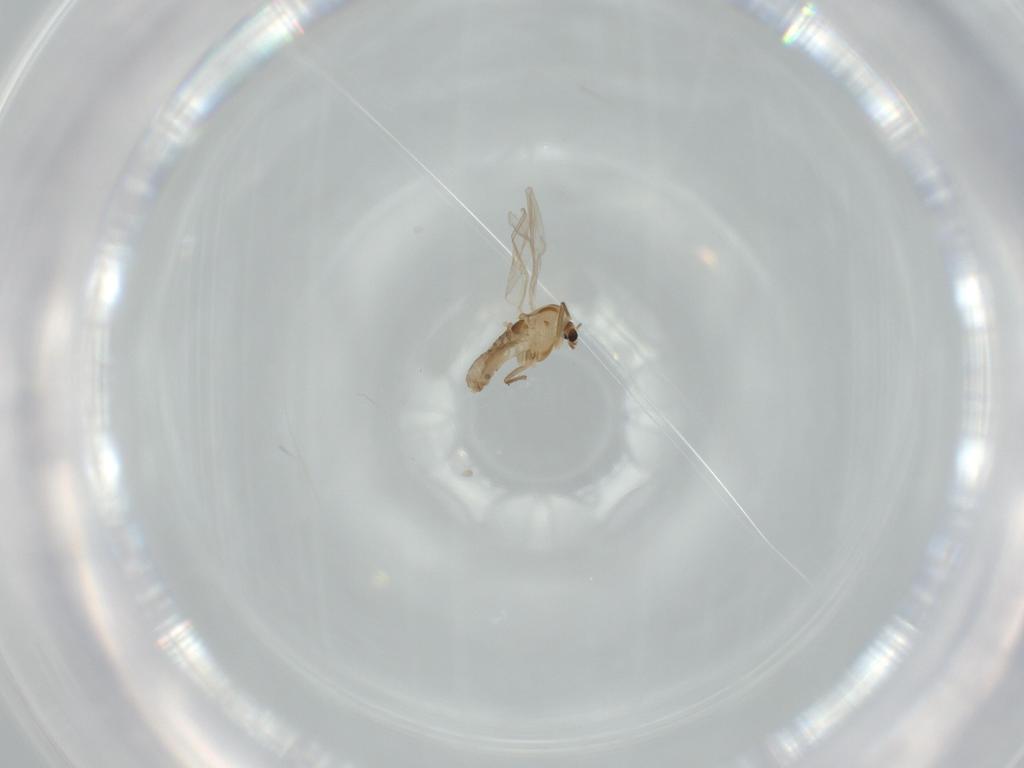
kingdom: Animalia
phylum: Arthropoda
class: Insecta
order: Diptera
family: Chironomidae
